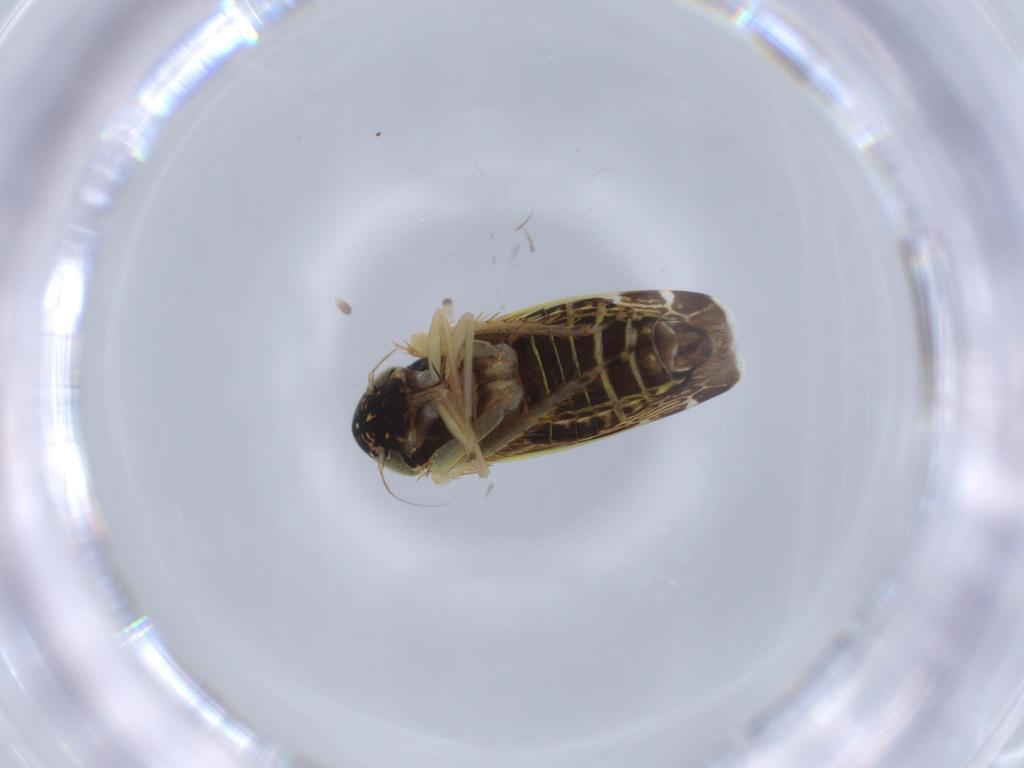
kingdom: Animalia
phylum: Arthropoda
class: Insecta
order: Hemiptera
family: Cicadellidae
